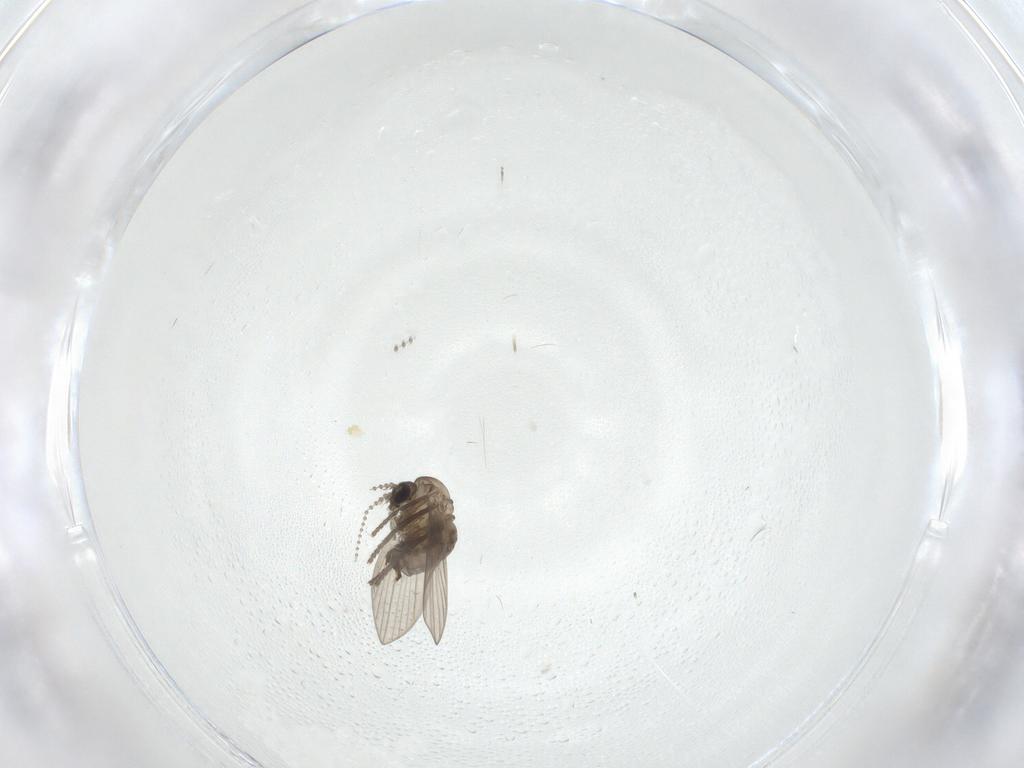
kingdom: Animalia
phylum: Arthropoda
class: Insecta
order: Diptera
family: Psychodidae
